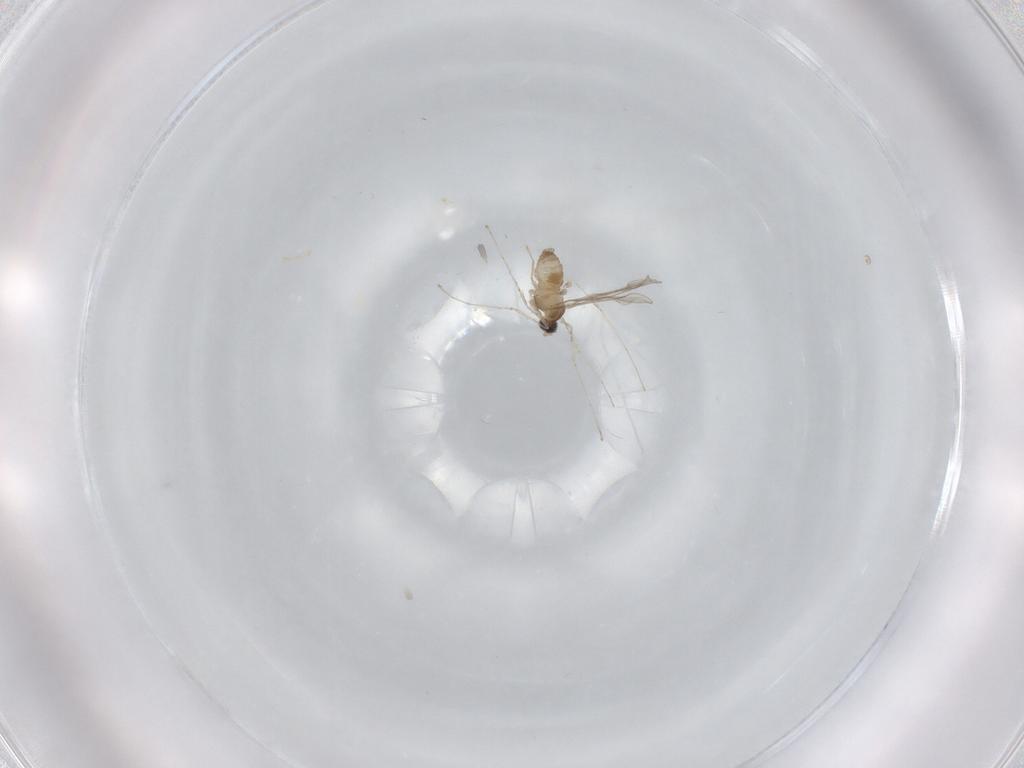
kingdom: Animalia
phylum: Arthropoda
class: Insecta
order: Diptera
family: Cecidomyiidae
